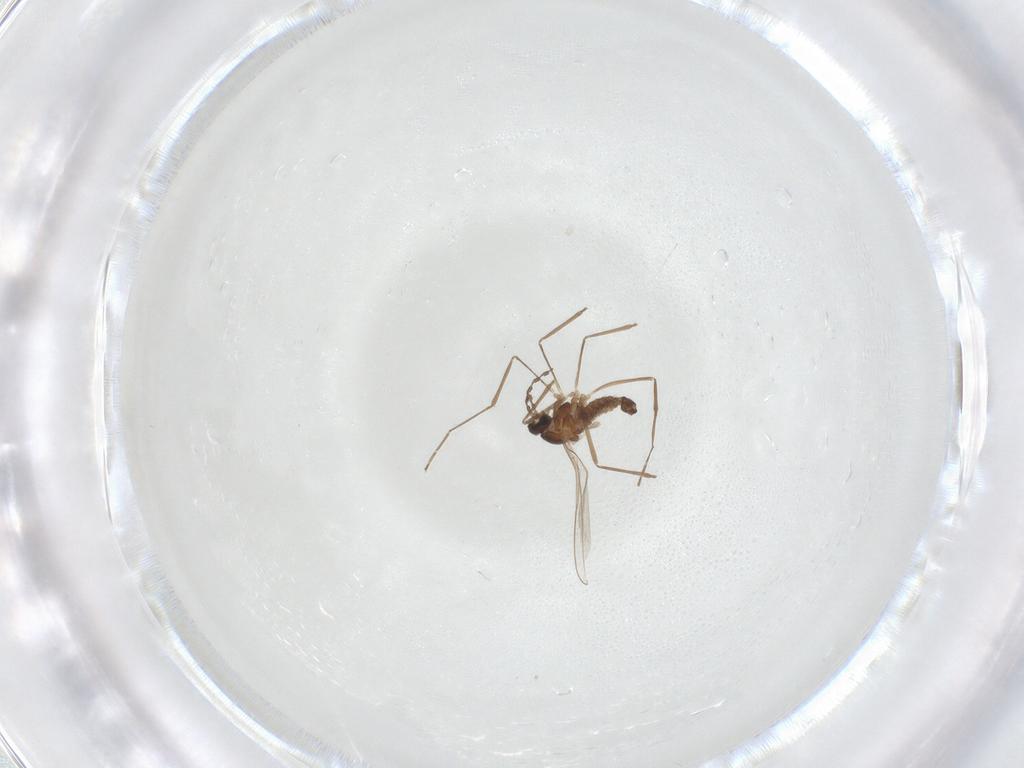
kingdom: Animalia
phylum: Arthropoda
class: Insecta
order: Diptera
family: Cecidomyiidae
